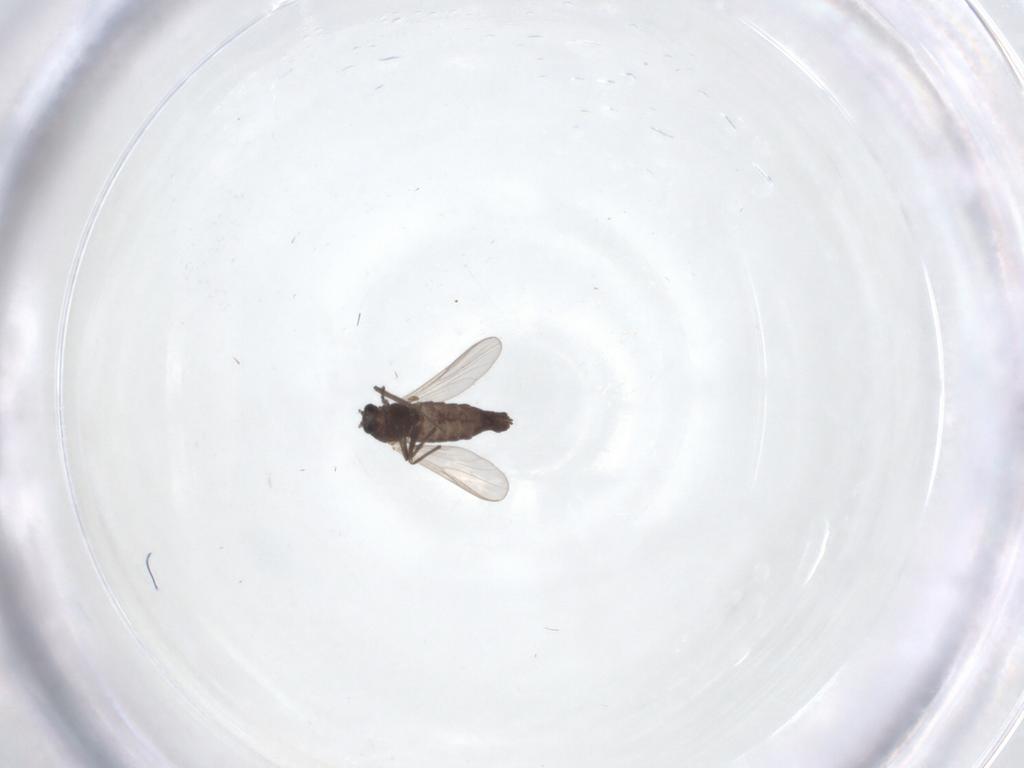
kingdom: Animalia
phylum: Arthropoda
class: Insecta
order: Diptera
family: Chironomidae
